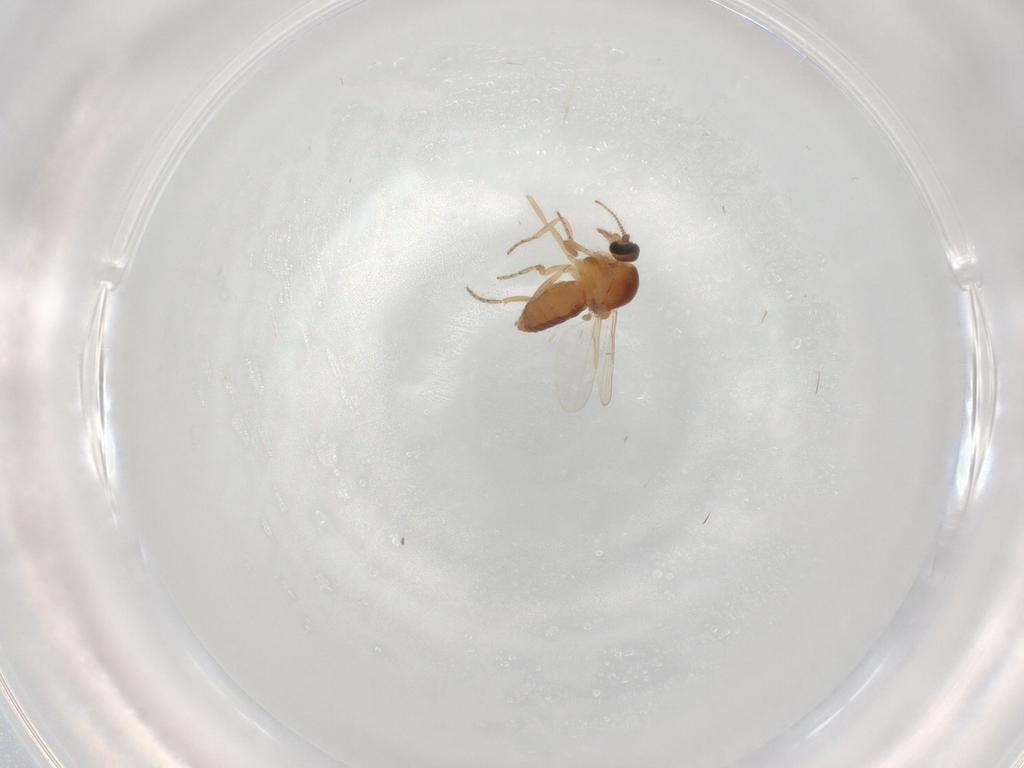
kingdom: Animalia
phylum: Arthropoda
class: Insecta
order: Diptera
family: Ceratopogonidae
